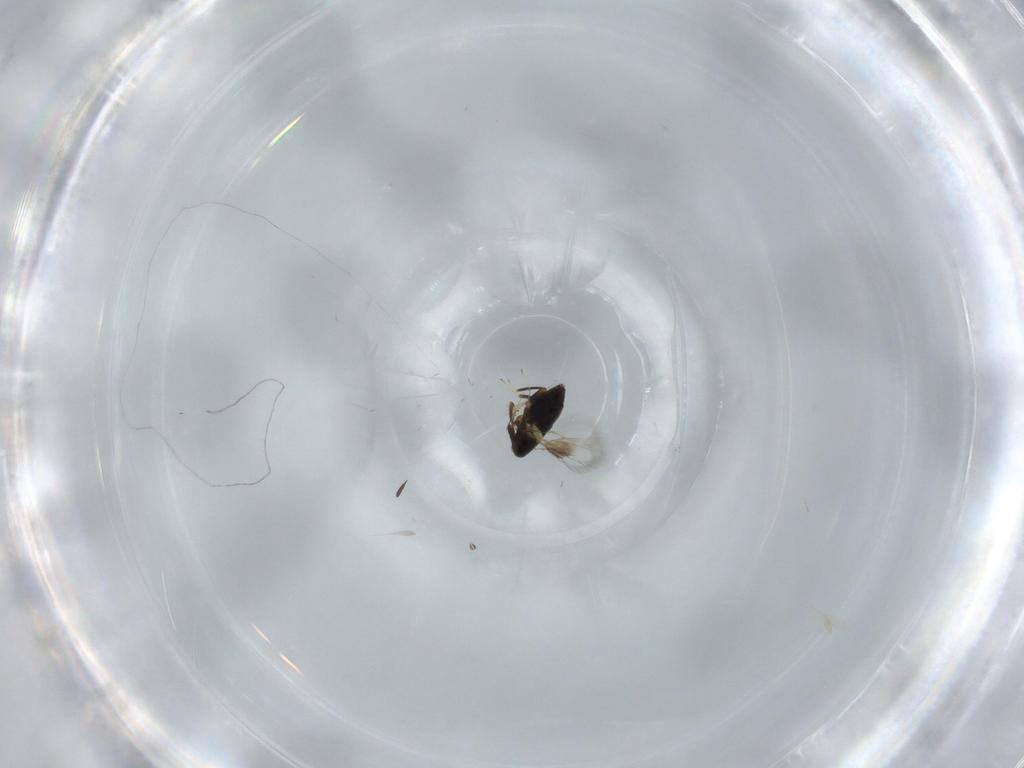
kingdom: Animalia
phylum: Arthropoda
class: Insecta
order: Hymenoptera
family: Signiphoridae
